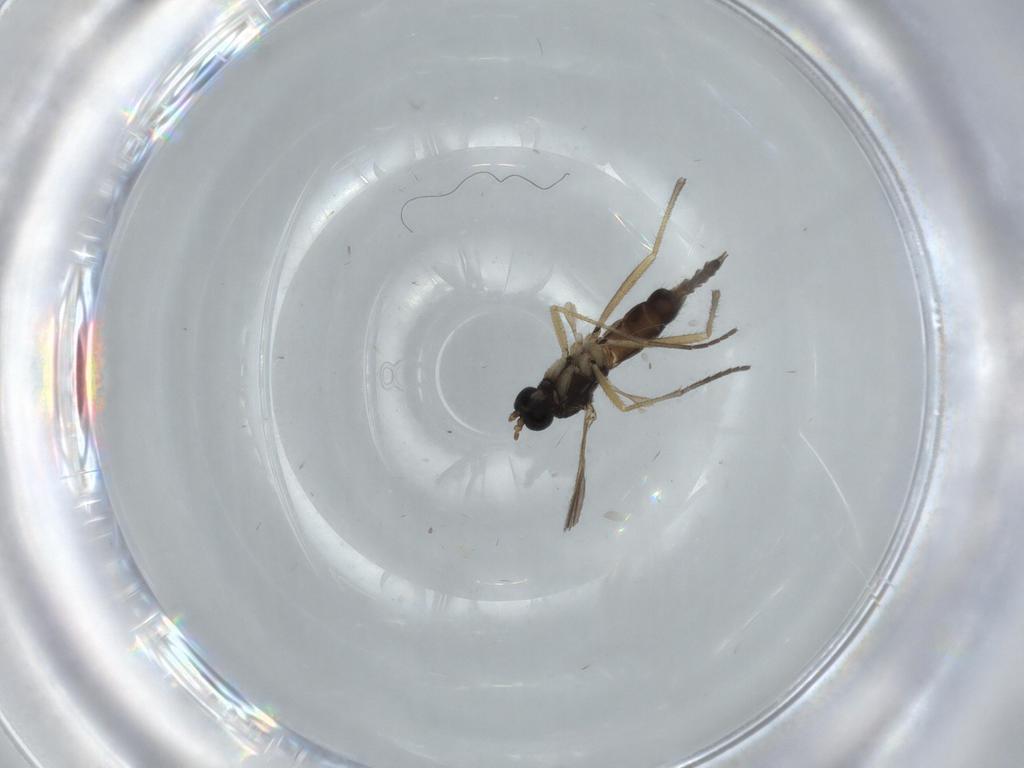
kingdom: Animalia
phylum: Arthropoda
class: Insecta
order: Diptera
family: Sciaridae
